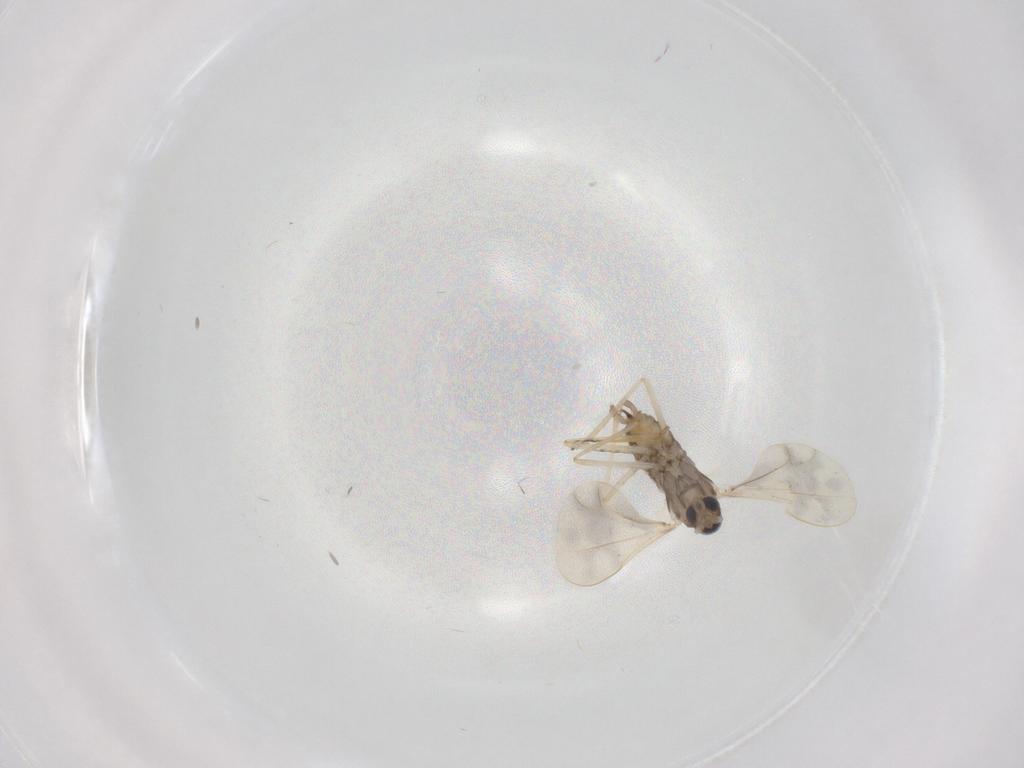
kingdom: Animalia
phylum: Arthropoda
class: Insecta
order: Diptera
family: Cecidomyiidae
